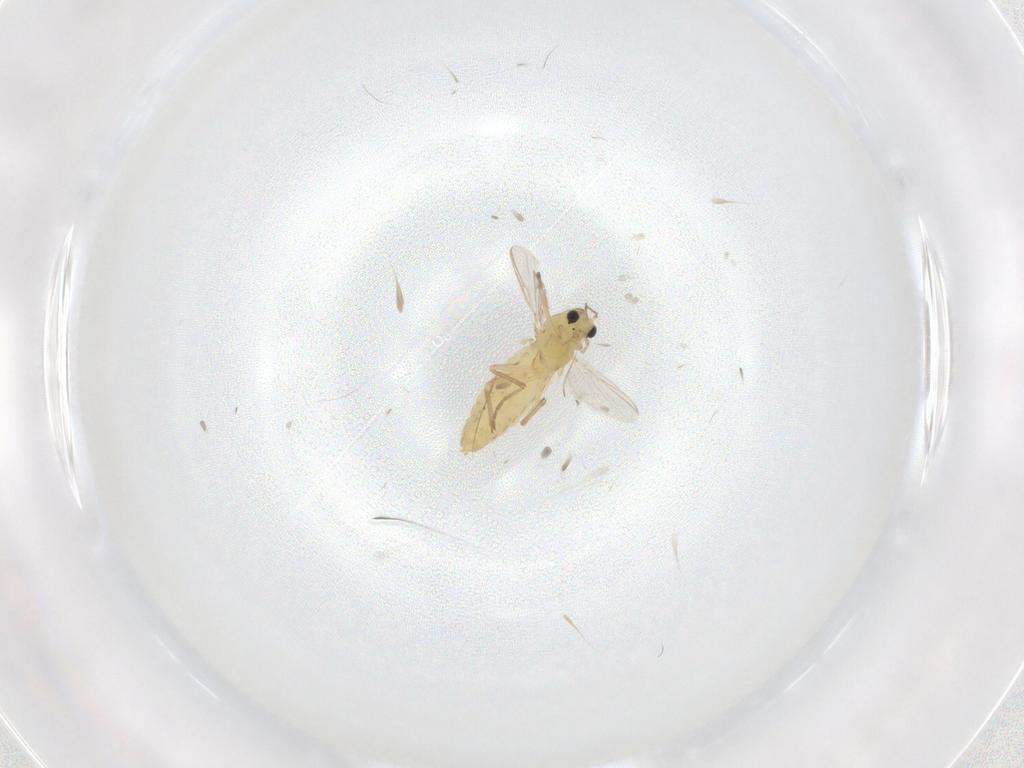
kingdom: Animalia
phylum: Arthropoda
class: Insecta
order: Diptera
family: Chironomidae
